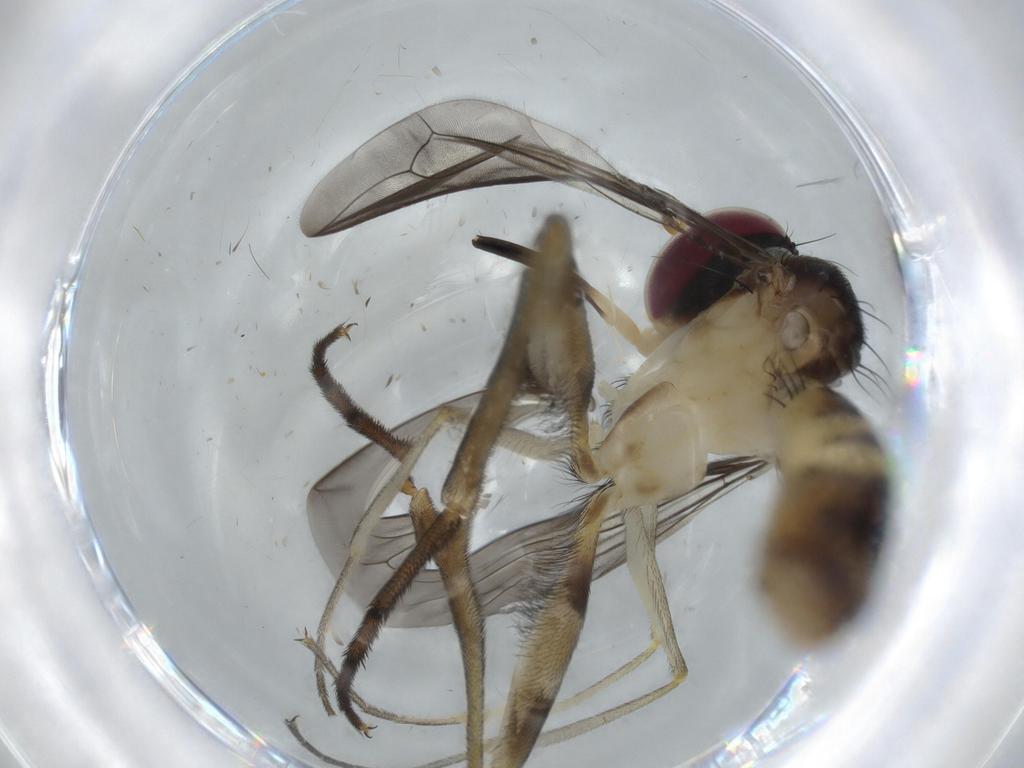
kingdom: Animalia
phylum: Arthropoda
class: Insecta
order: Diptera
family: Conopidae
